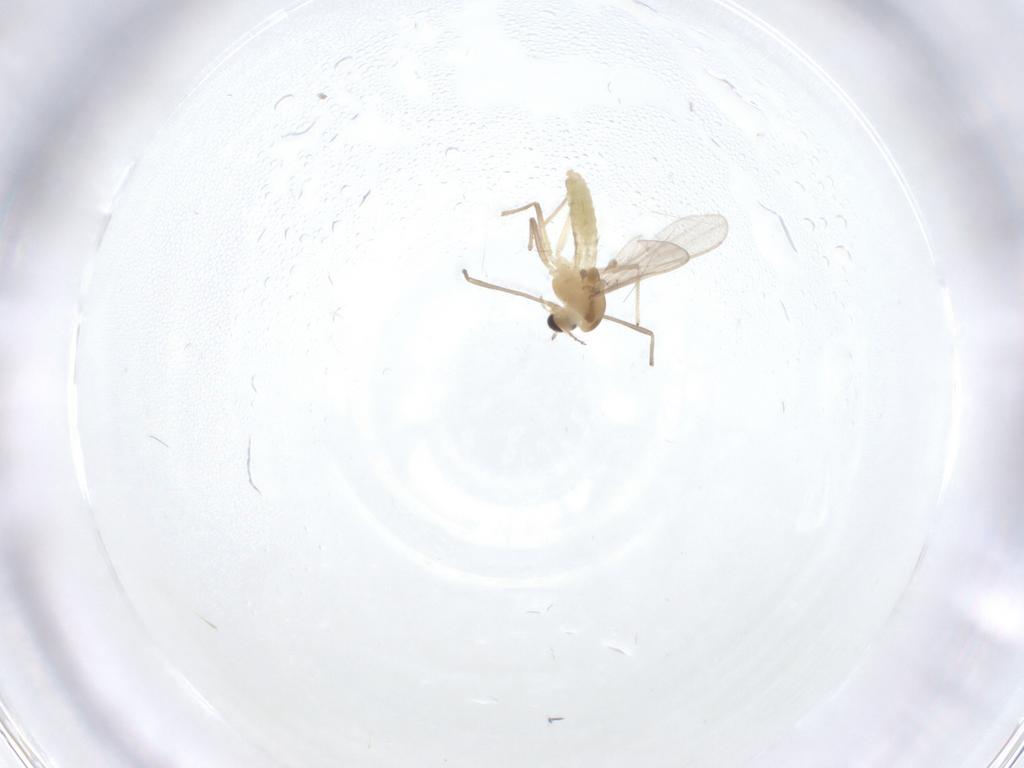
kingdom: Animalia
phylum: Arthropoda
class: Insecta
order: Diptera
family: Chironomidae
